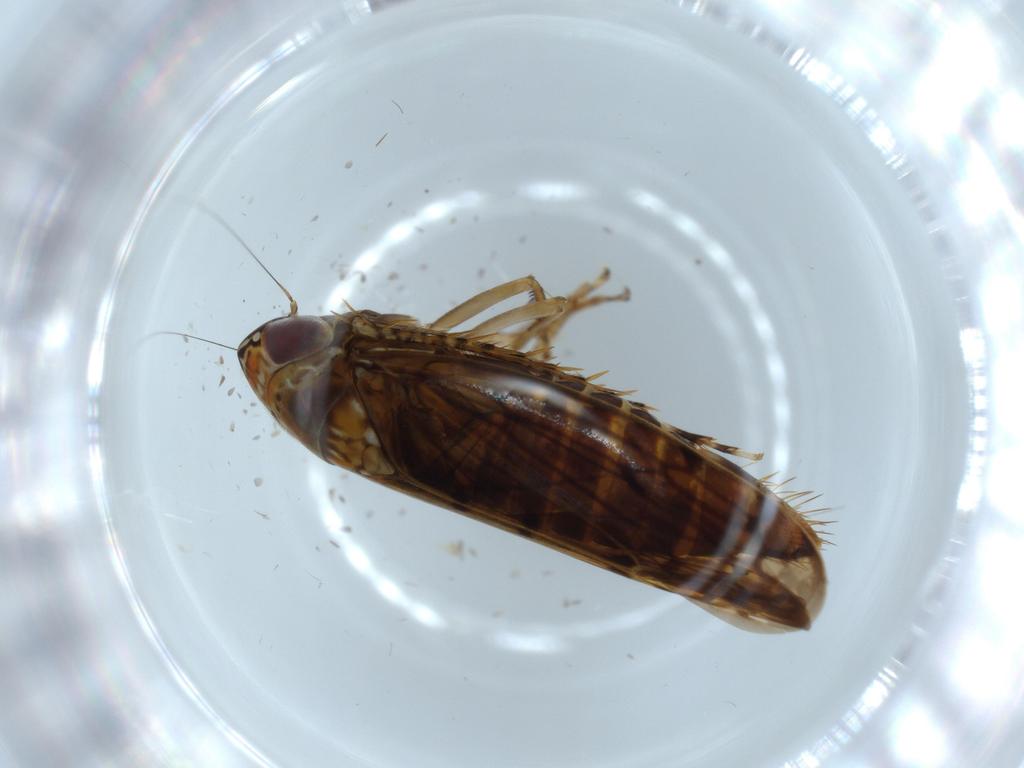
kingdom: Animalia
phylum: Arthropoda
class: Insecta
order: Hemiptera
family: Cicadellidae
